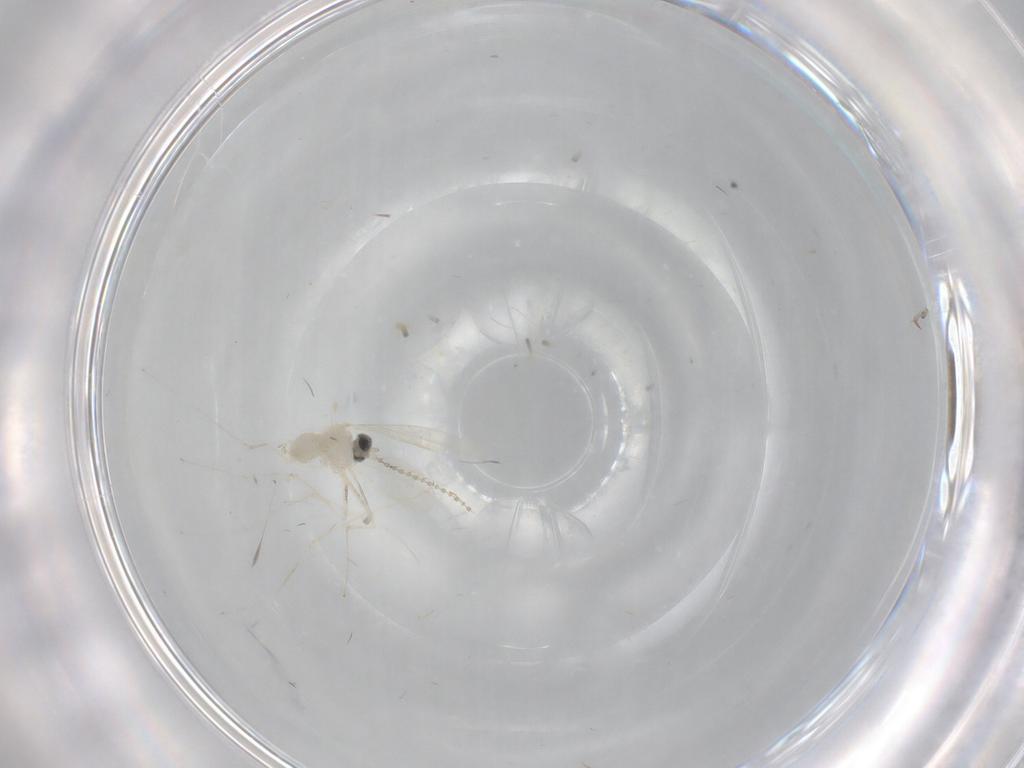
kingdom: Animalia
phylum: Arthropoda
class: Insecta
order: Diptera
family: Cecidomyiidae
